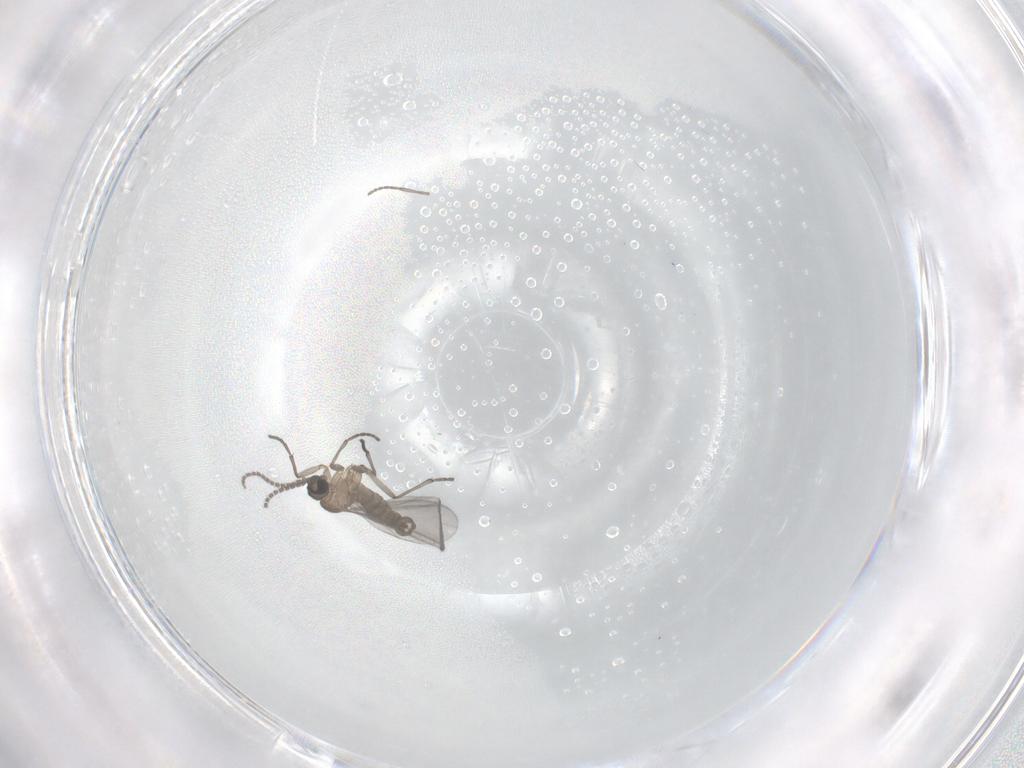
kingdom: Animalia
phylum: Arthropoda
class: Insecta
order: Diptera
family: Sciaridae
